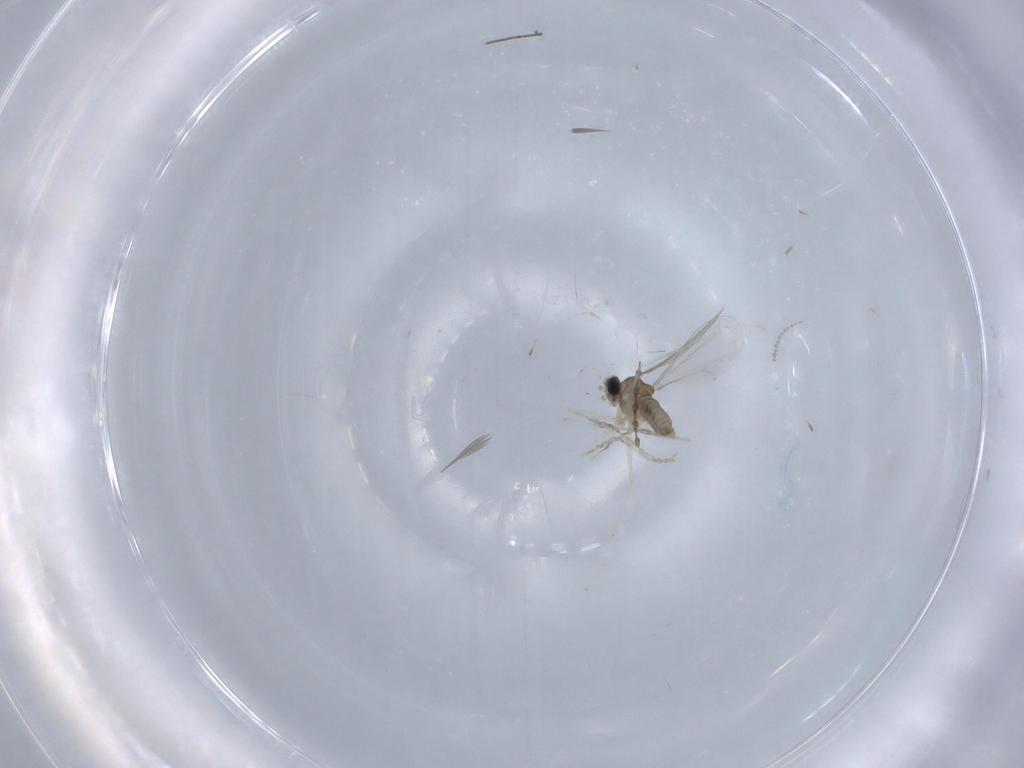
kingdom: Animalia
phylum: Arthropoda
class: Insecta
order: Diptera
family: Cecidomyiidae
